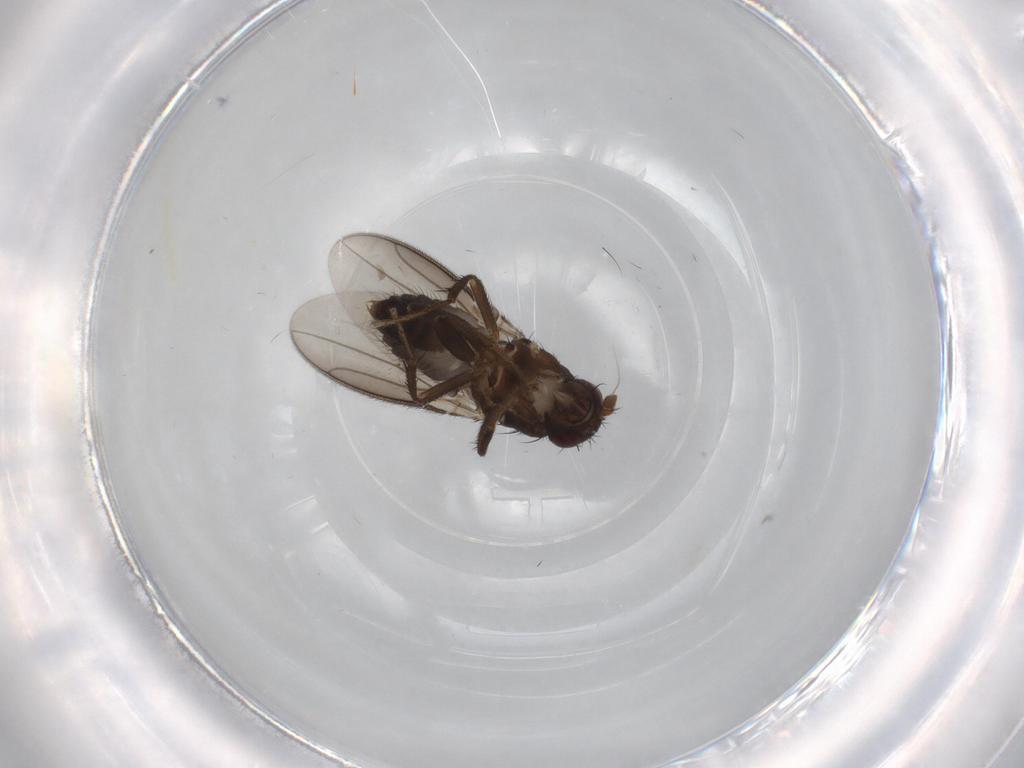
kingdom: Animalia
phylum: Arthropoda
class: Insecta
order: Diptera
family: Sphaeroceridae
